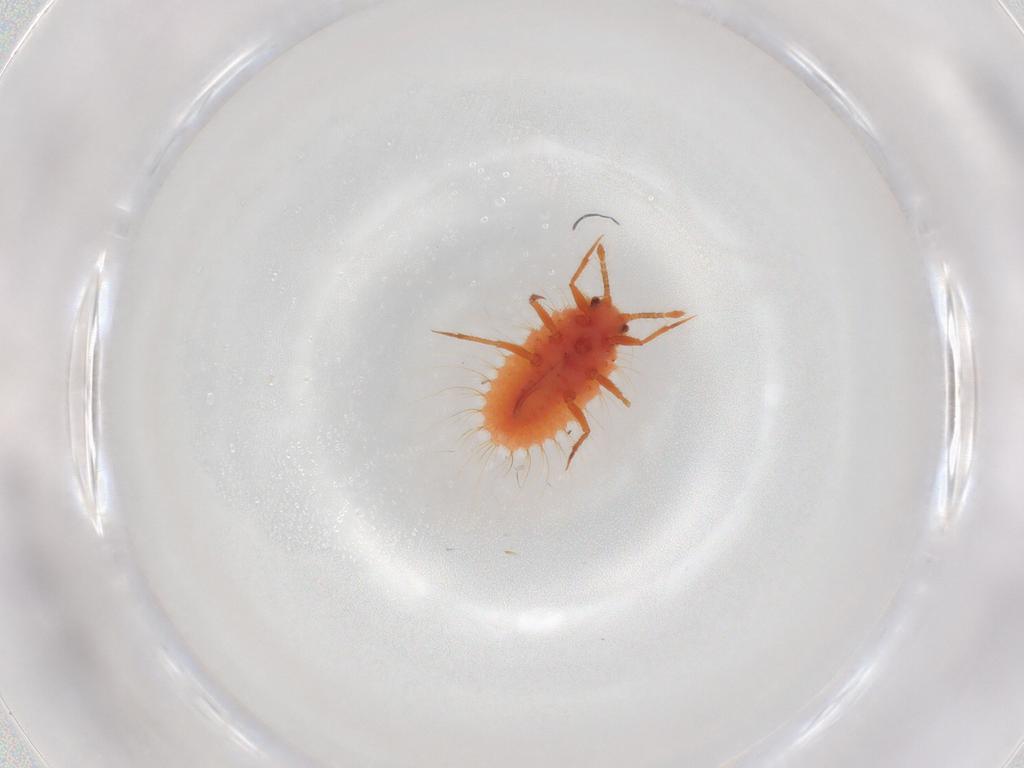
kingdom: Animalia
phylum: Arthropoda
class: Insecta
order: Hemiptera
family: Coccoidea_incertae_sedis
